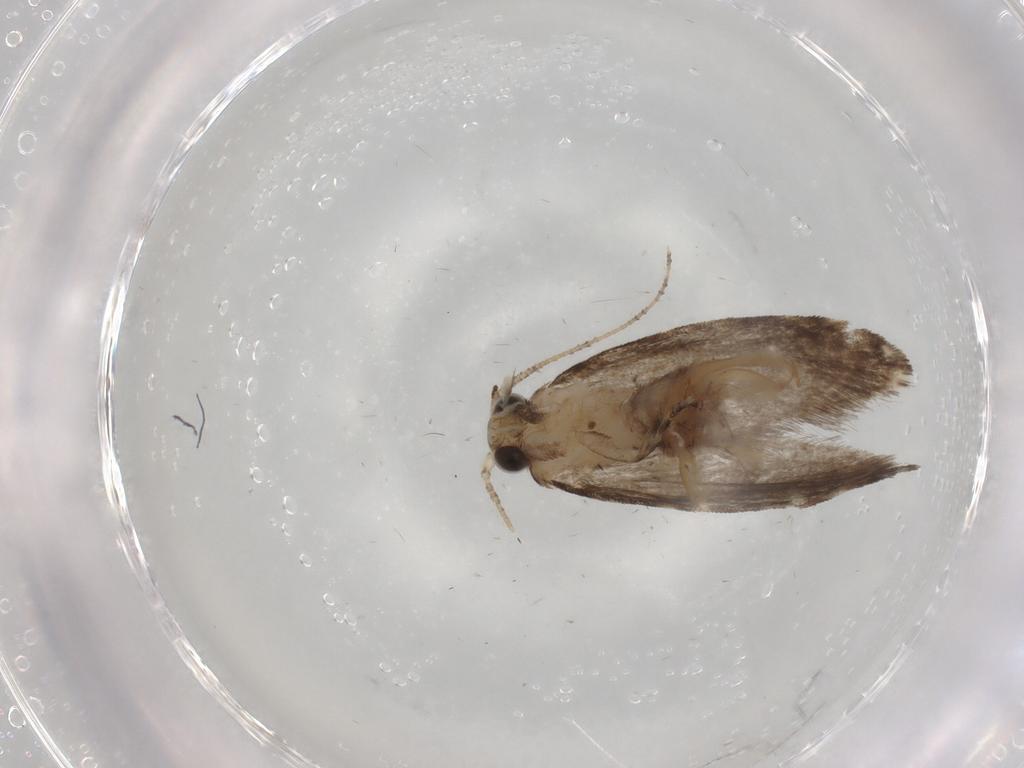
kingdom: Animalia
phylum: Arthropoda
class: Insecta
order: Lepidoptera
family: Tineidae
